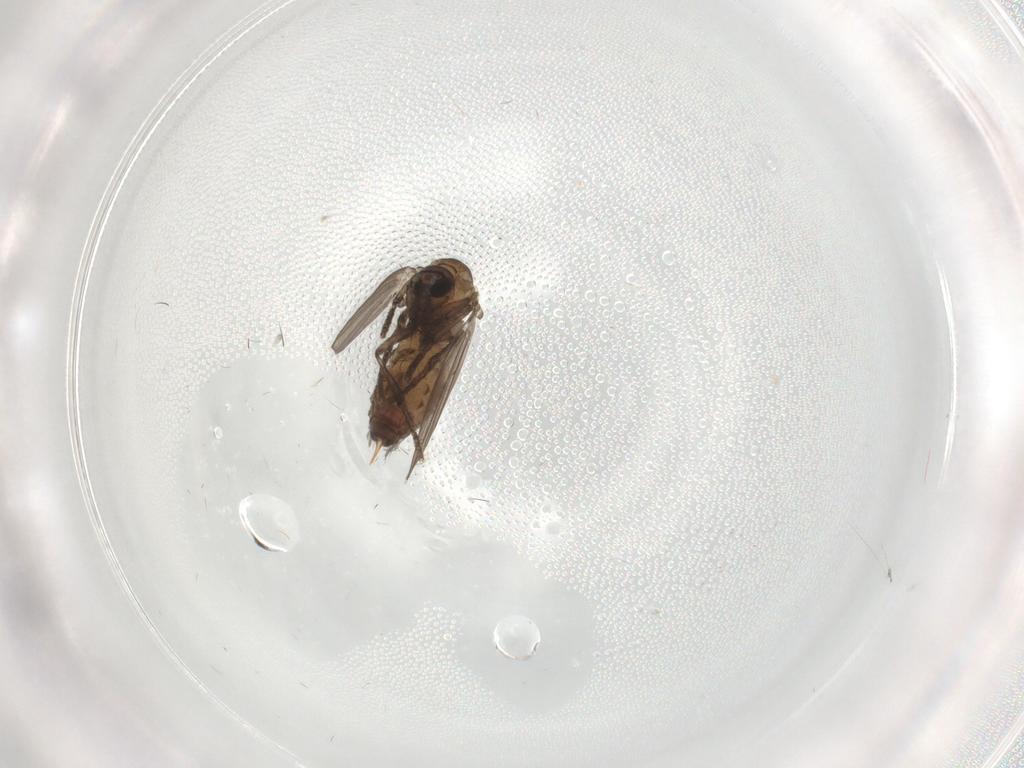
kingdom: Animalia
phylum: Arthropoda
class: Insecta
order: Diptera
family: Psychodidae
